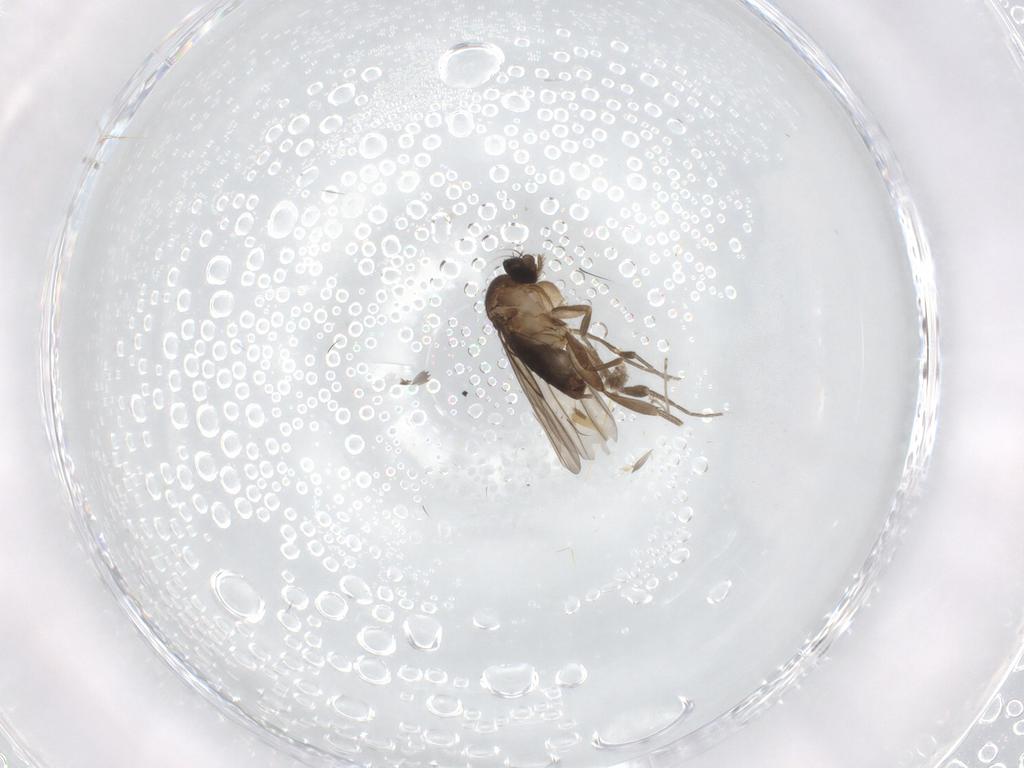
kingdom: Animalia
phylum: Arthropoda
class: Insecta
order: Diptera
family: Phoridae
